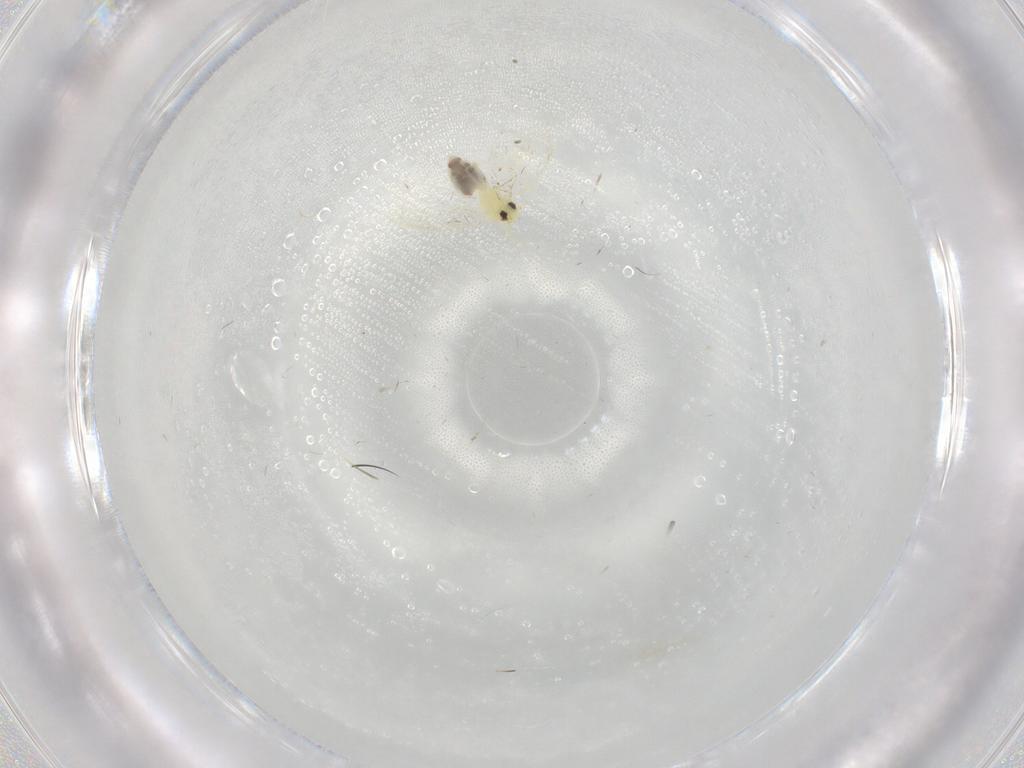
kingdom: Animalia
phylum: Arthropoda
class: Insecta
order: Hemiptera
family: Aleyrodidae
